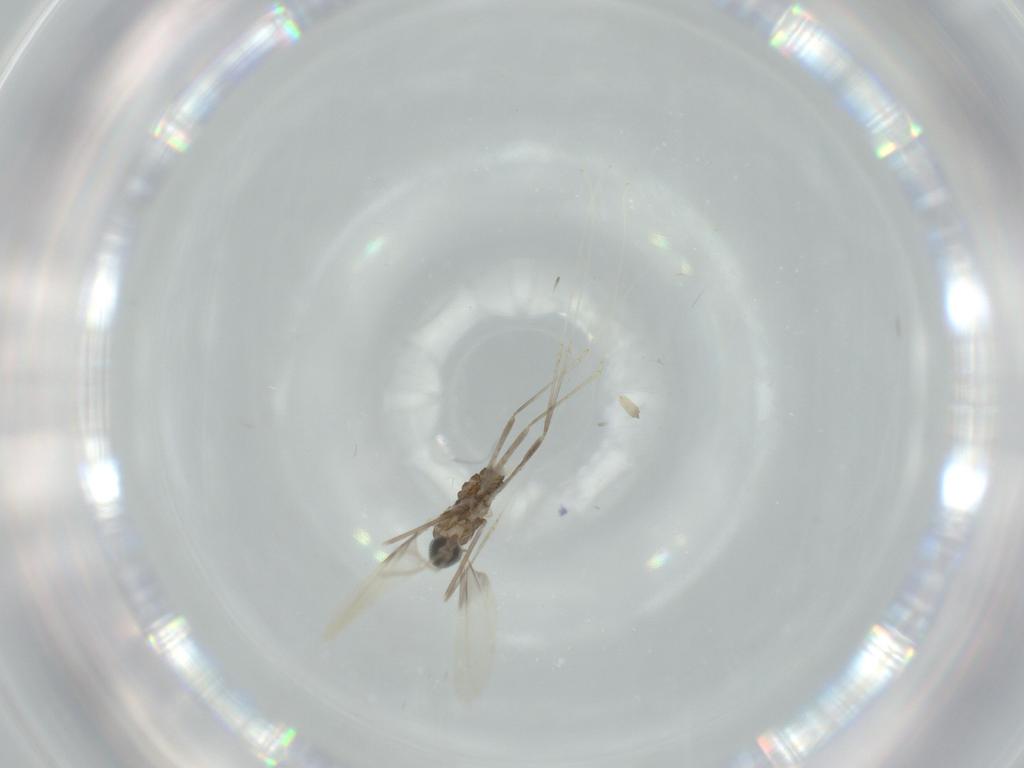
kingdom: Animalia
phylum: Arthropoda
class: Insecta
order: Diptera
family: Cecidomyiidae
